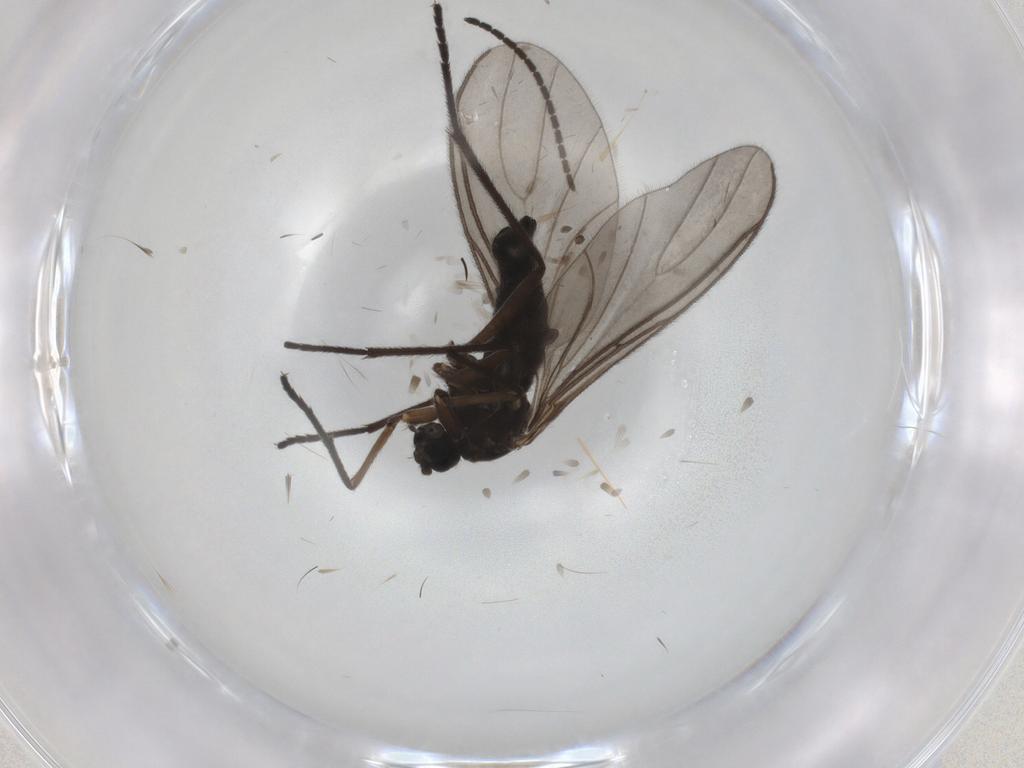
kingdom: Animalia
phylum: Arthropoda
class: Insecta
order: Diptera
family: Sciaridae
